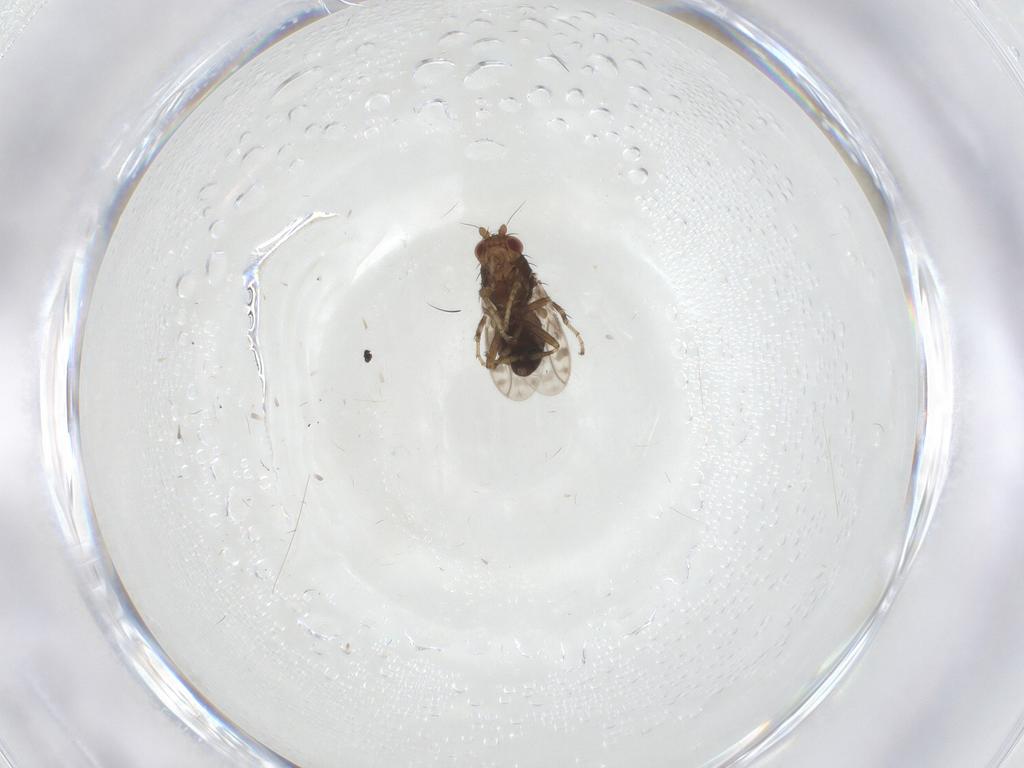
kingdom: Animalia
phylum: Arthropoda
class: Insecta
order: Diptera
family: Sphaeroceridae
